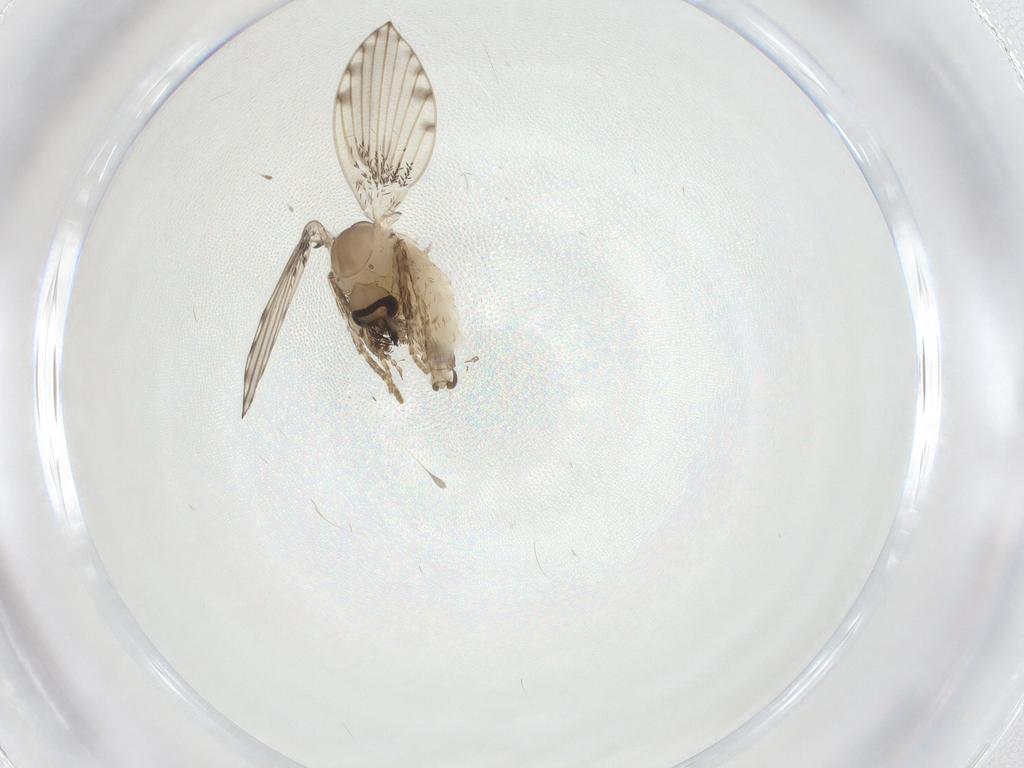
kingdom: Animalia
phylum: Arthropoda
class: Insecta
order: Diptera
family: Psychodidae
